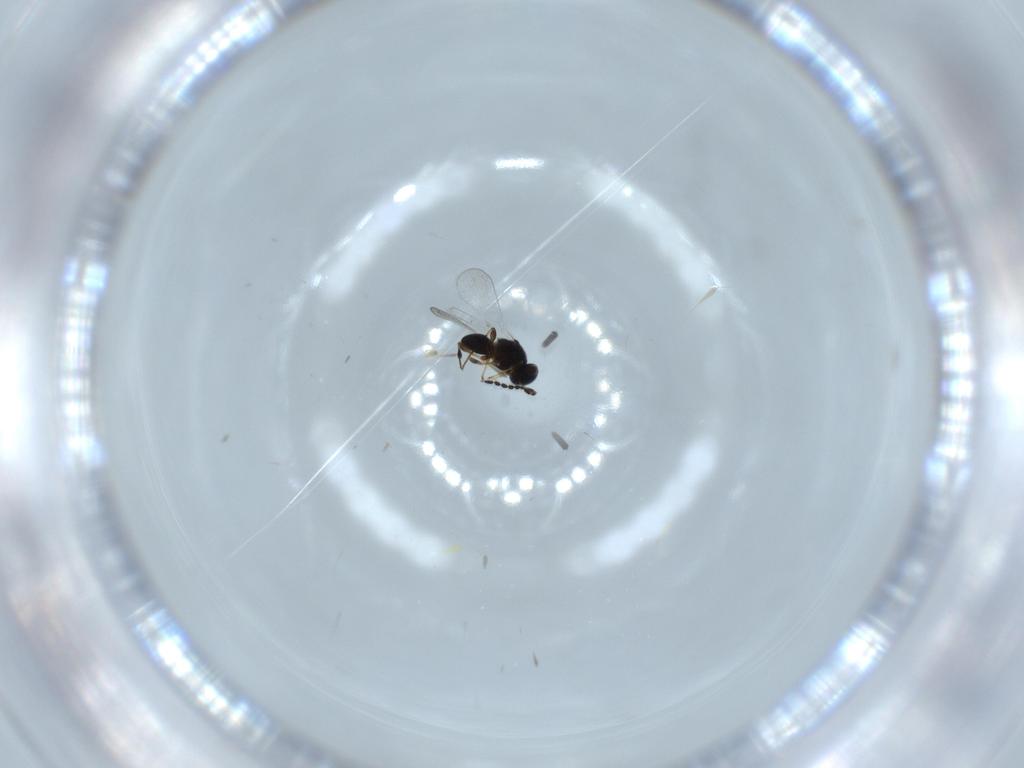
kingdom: Animalia
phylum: Arthropoda
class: Insecta
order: Hymenoptera
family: Platygastridae
